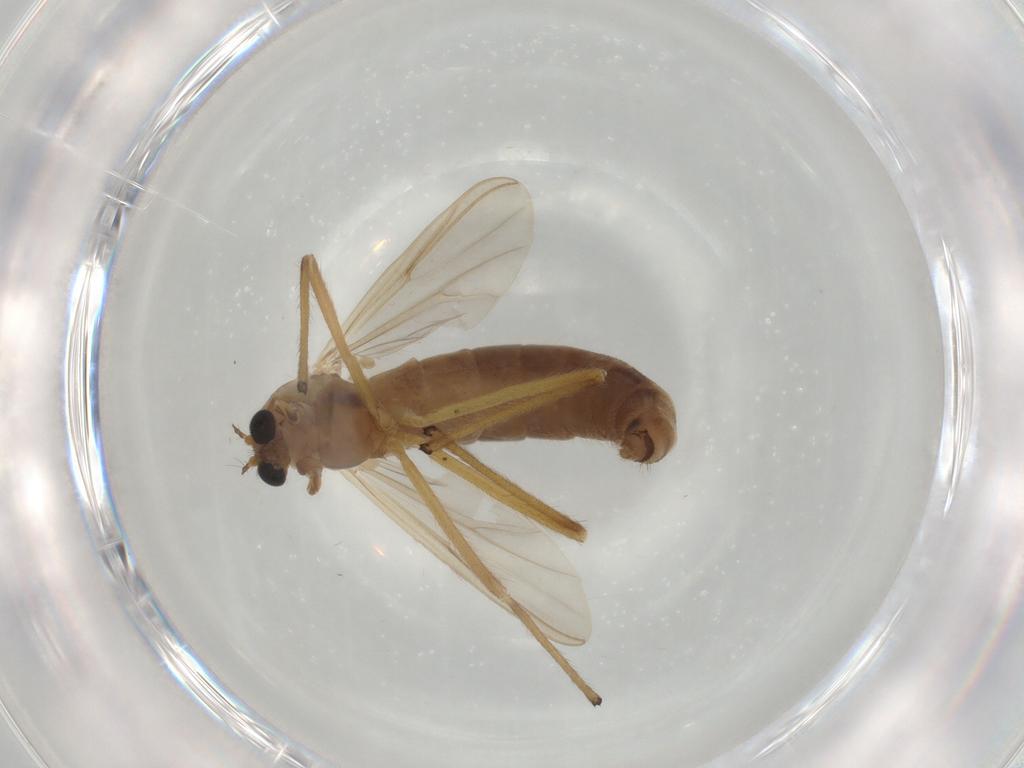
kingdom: Animalia
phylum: Arthropoda
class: Insecta
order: Diptera
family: Chironomidae
